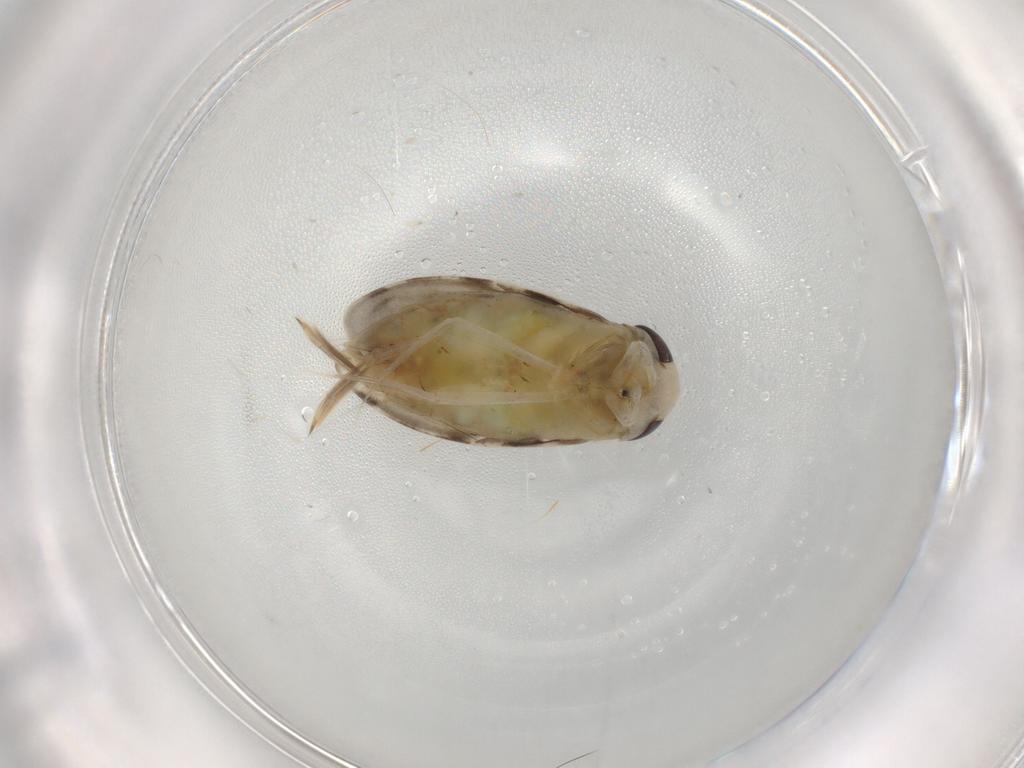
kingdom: Animalia
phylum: Arthropoda
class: Insecta
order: Hemiptera
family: Corixidae
